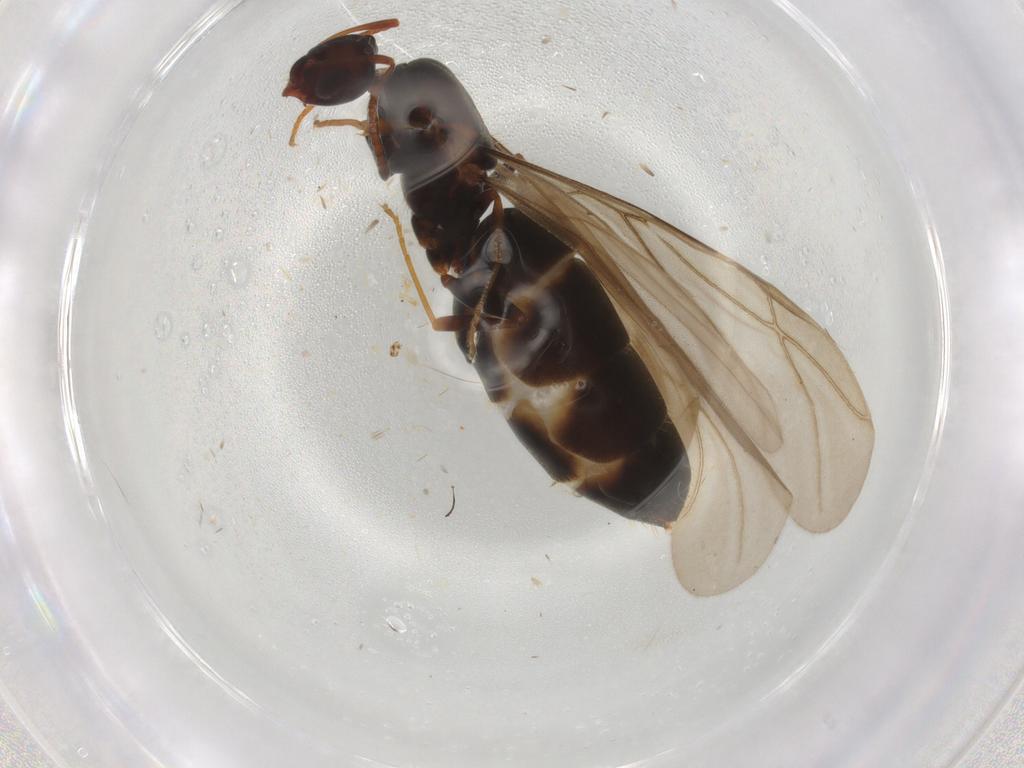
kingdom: Animalia
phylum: Arthropoda
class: Insecta
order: Hymenoptera
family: Formicidae
